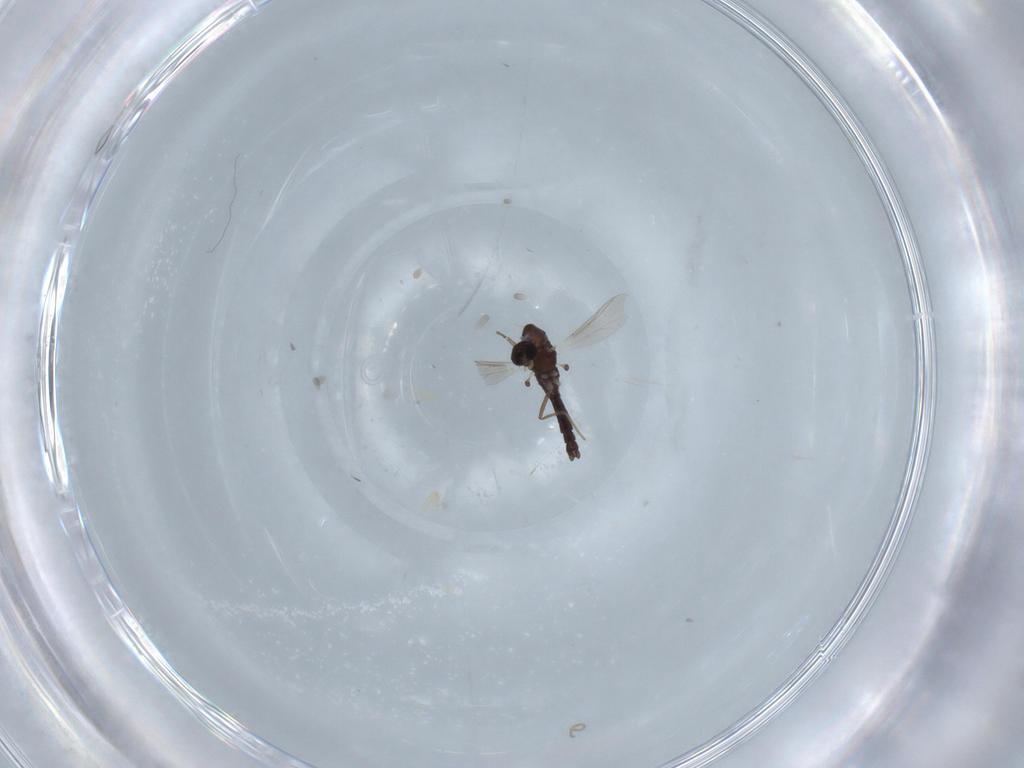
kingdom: Animalia
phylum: Arthropoda
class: Insecta
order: Diptera
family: Chironomidae
